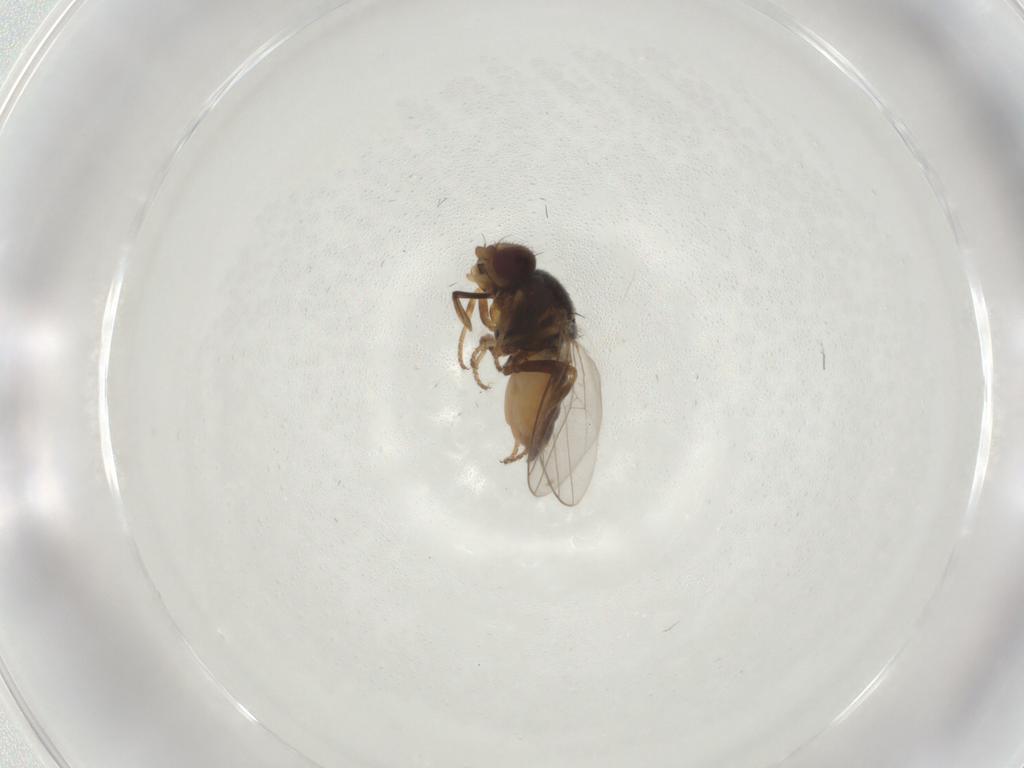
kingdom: Animalia
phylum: Arthropoda
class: Insecta
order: Diptera
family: Chloropidae
